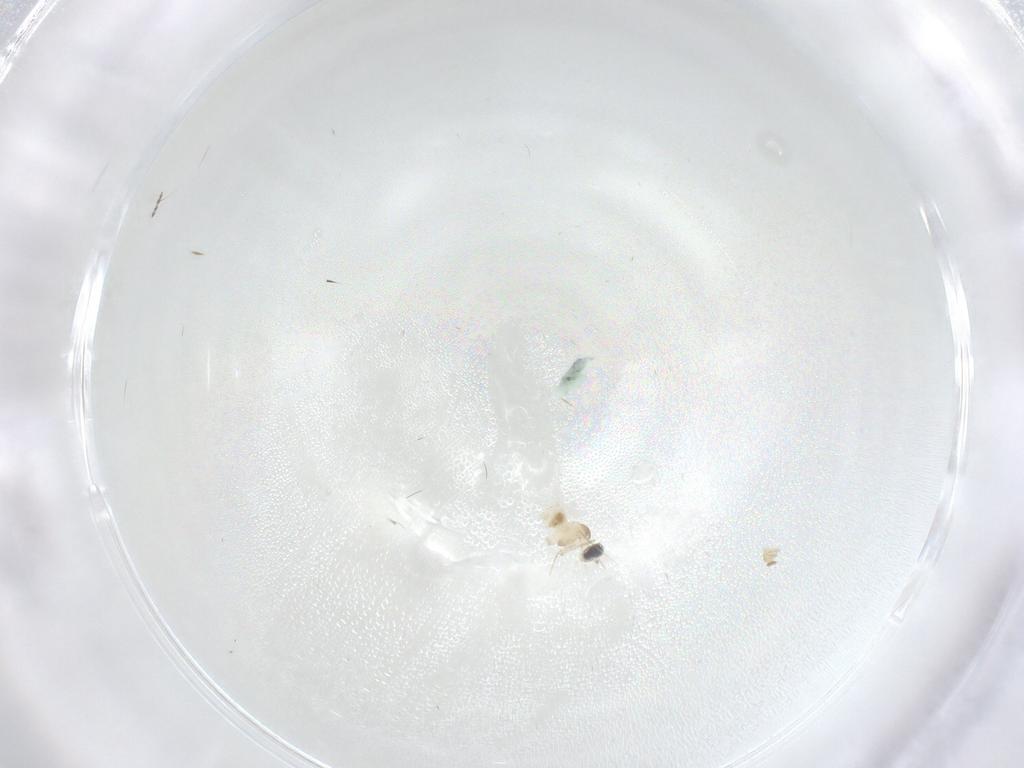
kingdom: Animalia
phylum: Arthropoda
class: Insecta
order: Diptera
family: Cecidomyiidae
